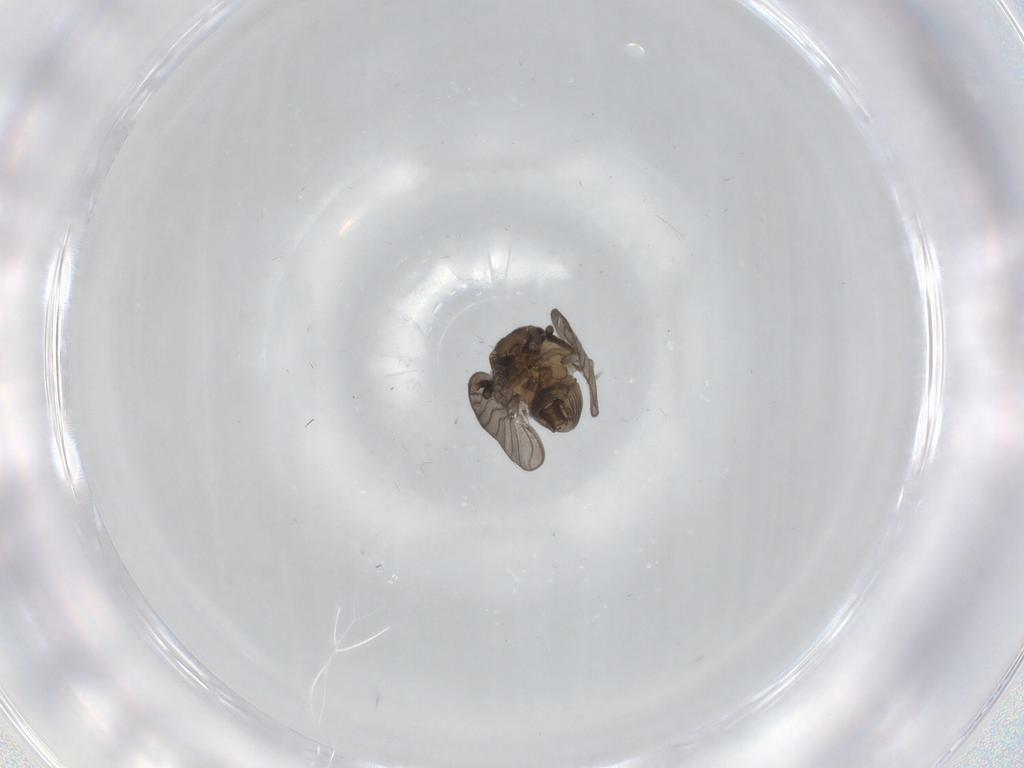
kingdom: Animalia
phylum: Arthropoda
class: Insecta
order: Diptera
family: Psychodidae
